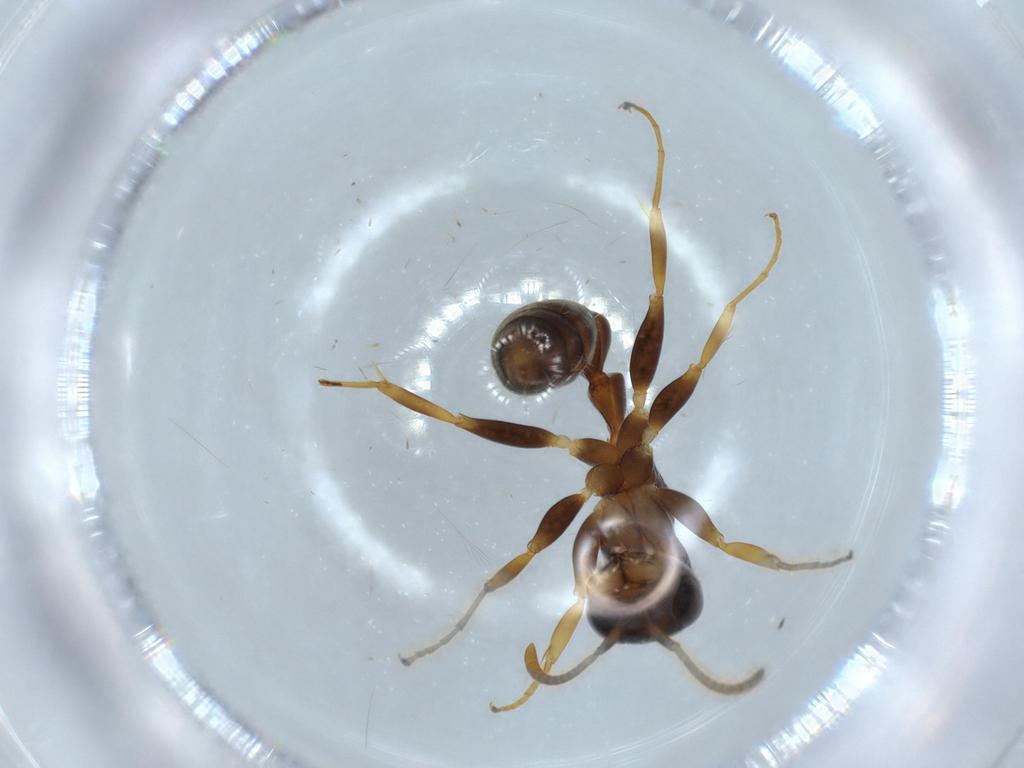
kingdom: Animalia
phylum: Arthropoda
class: Insecta
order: Hymenoptera
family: Formicidae
